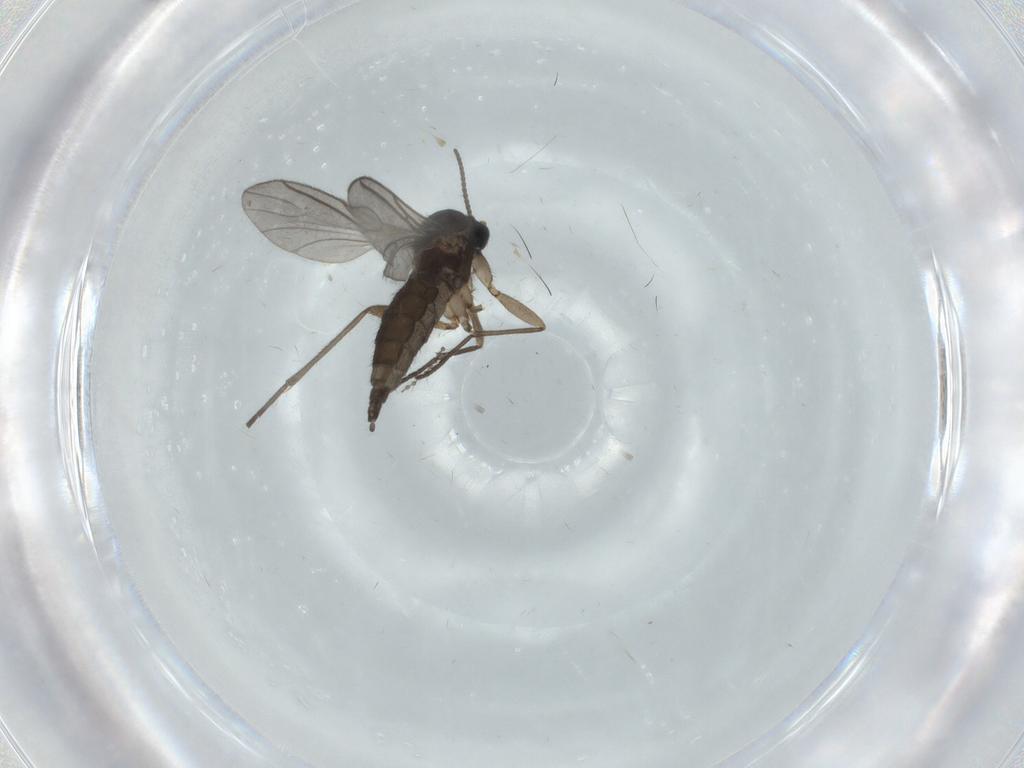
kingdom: Animalia
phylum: Arthropoda
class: Insecta
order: Diptera
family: Sciaridae
